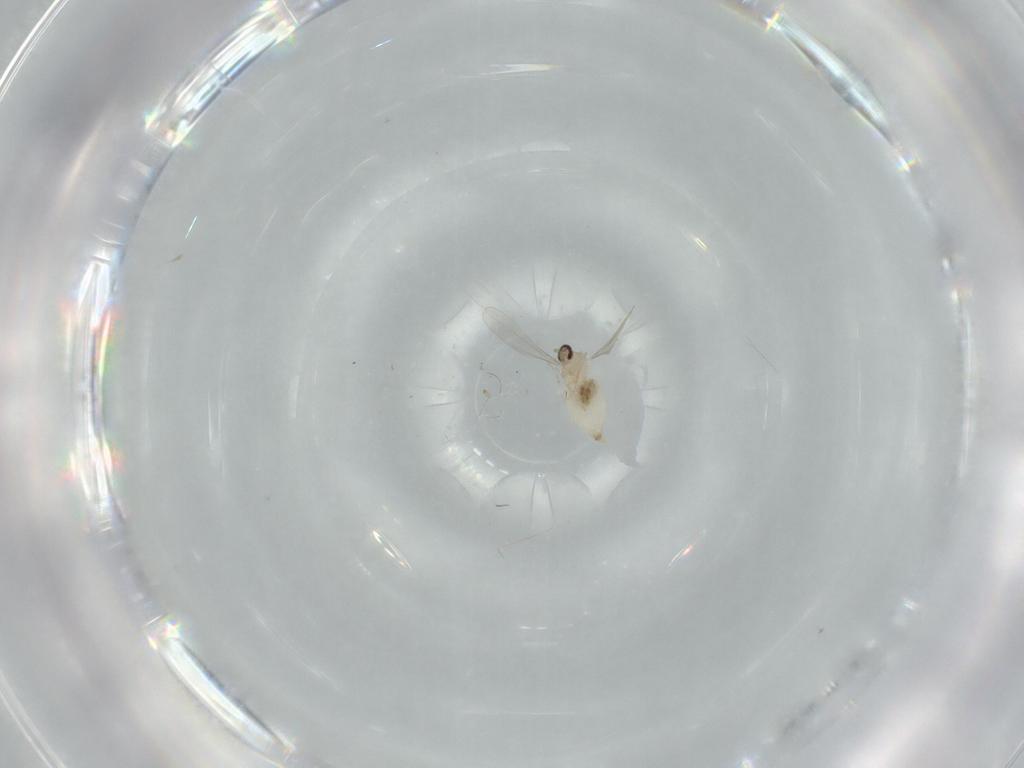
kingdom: Animalia
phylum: Arthropoda
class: Insecta
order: Diptera
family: Cecidomyiidae
